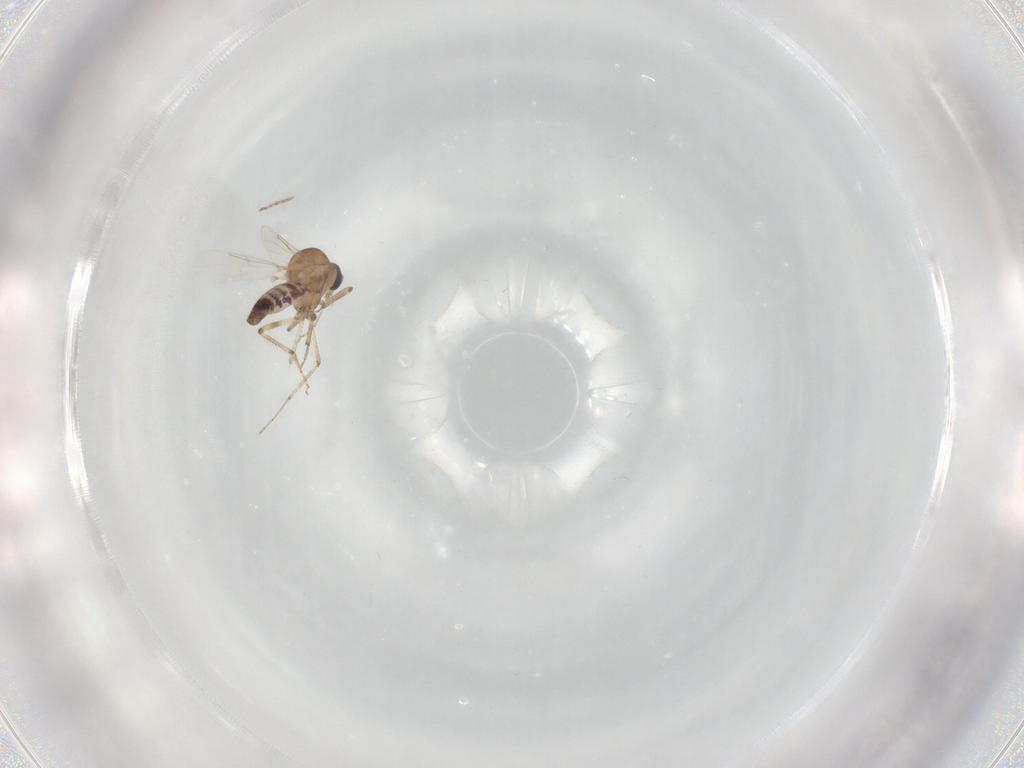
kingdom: Animalia
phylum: Arthropoda
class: Insecta
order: Diptera
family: Ceratopogonidae
